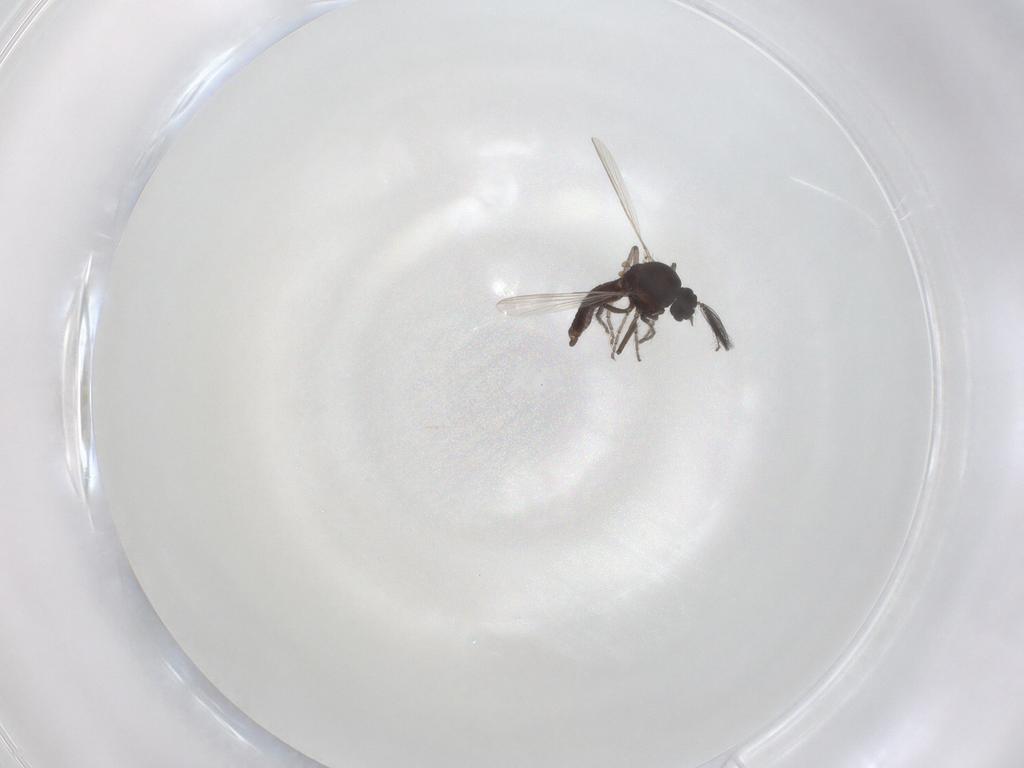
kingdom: Animalia
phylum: Arthropoda
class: Insecta
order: Diptera
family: Ceratopogonidae
